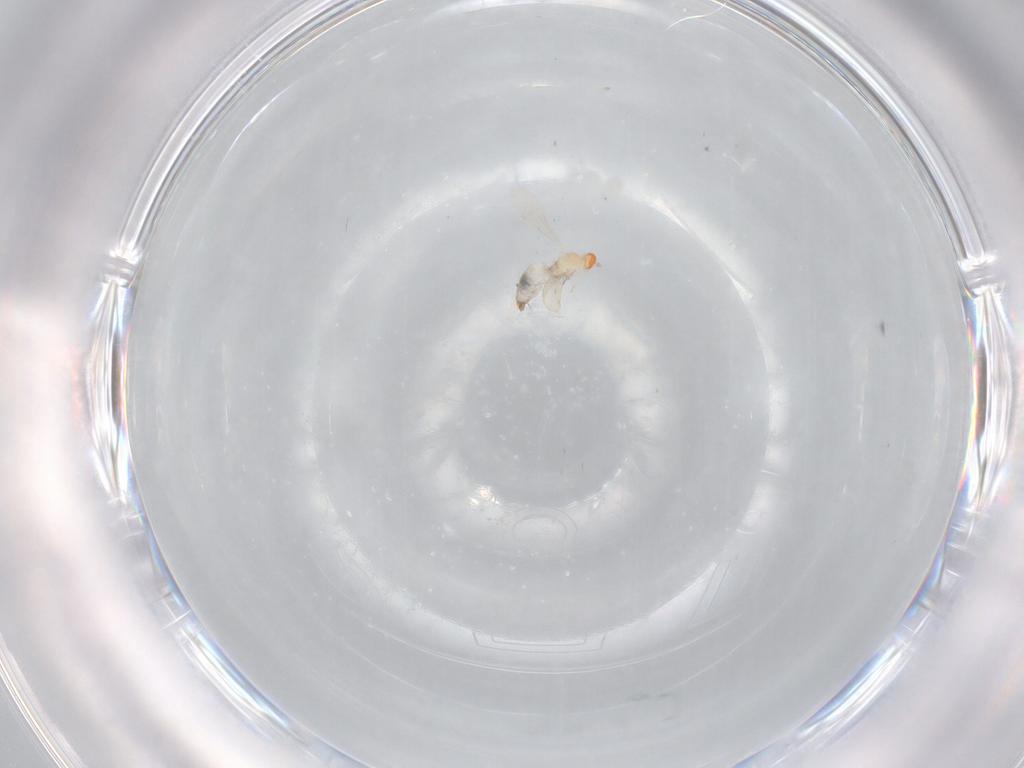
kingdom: Animalia
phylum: Arthropoda
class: Insecta
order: Diptera
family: Cecidomyiidae
